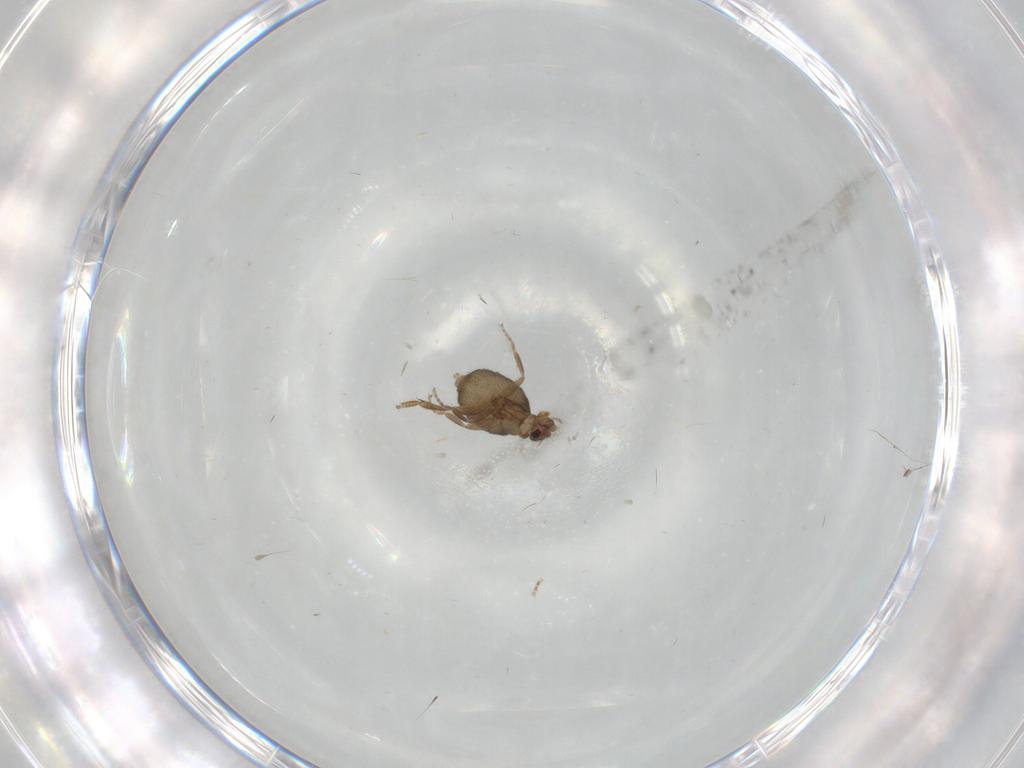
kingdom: Animalia
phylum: Arthropoda
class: Insecta
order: Diptera
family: Phoridae
